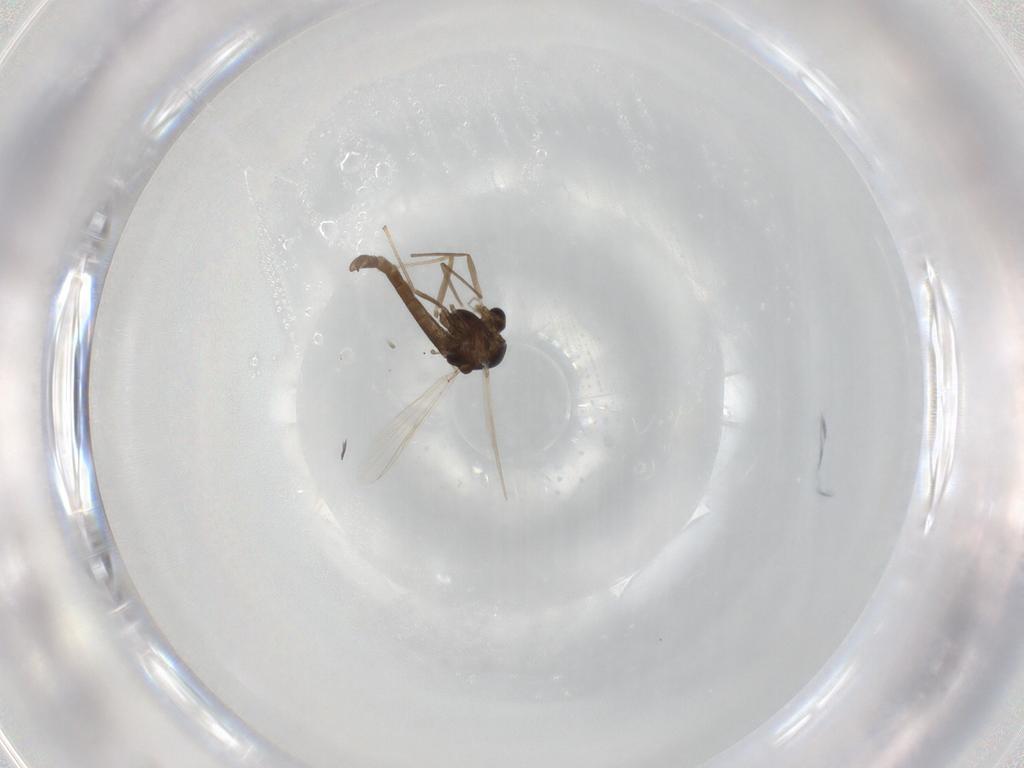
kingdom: Animalia
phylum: Arthropoda
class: Insecta
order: Diptera
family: Chironomidae
